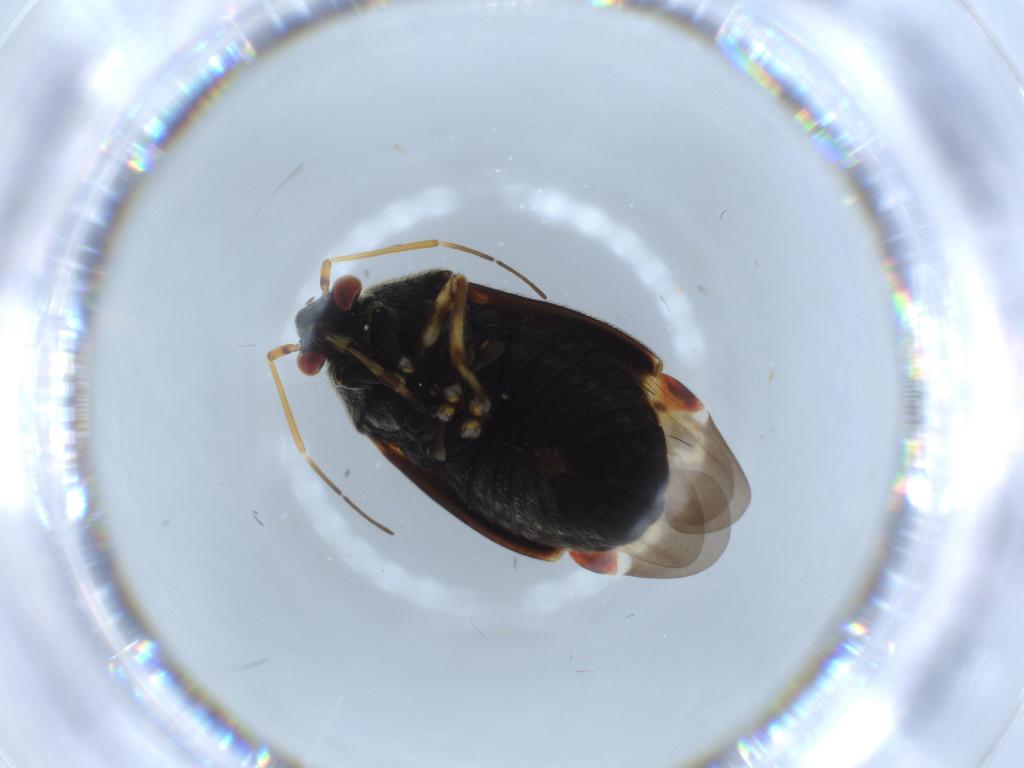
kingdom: Animalia
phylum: Arthropoda
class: Insecta
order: Hemiptera
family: Miridae
